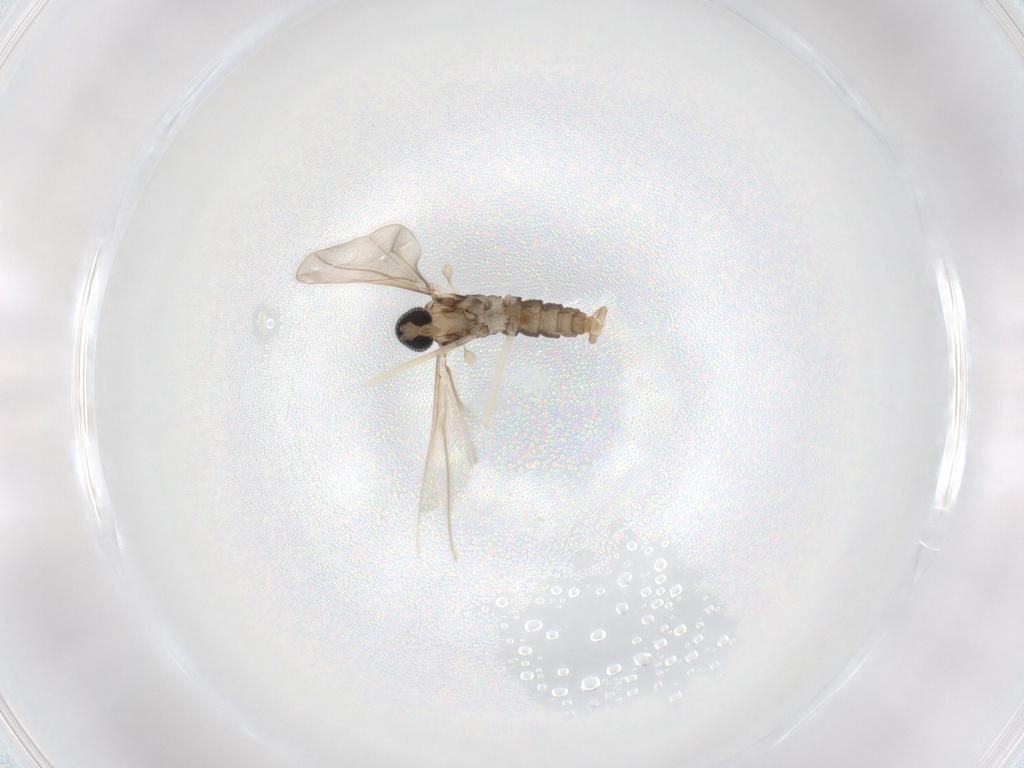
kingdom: Animalia
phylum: Arthropoda
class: Insecta
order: Diptera
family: Cecidomyiidae
